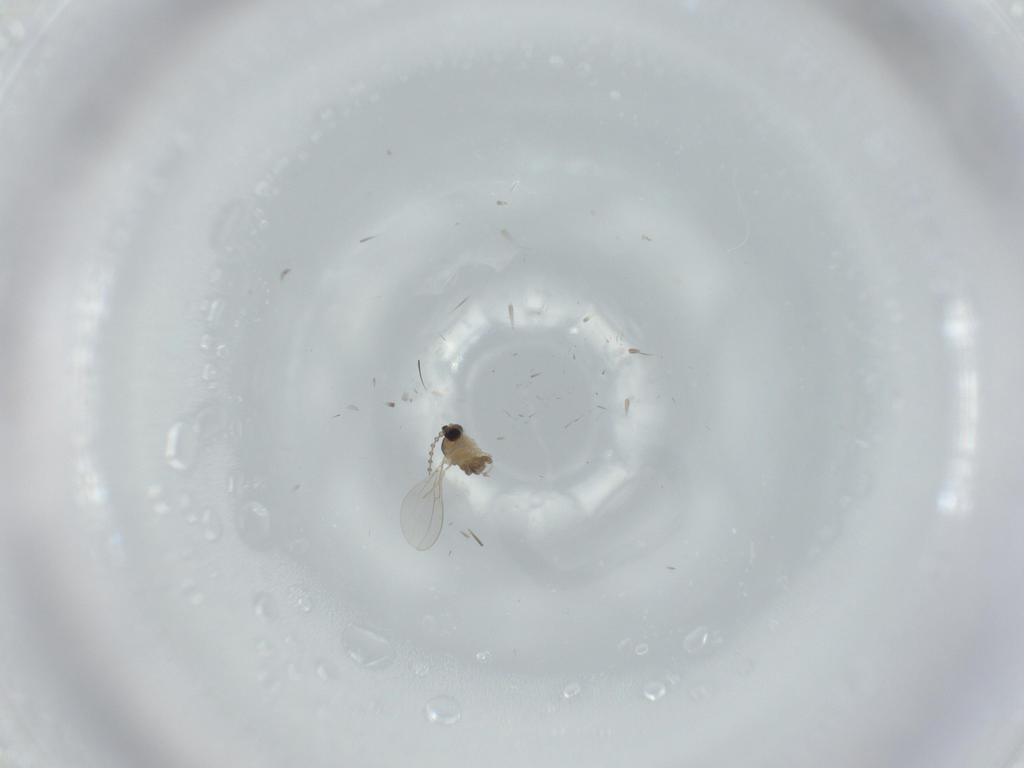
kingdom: Animalia
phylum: Arthropoda
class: Insecta
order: Diptera
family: Cecidomyiidae
